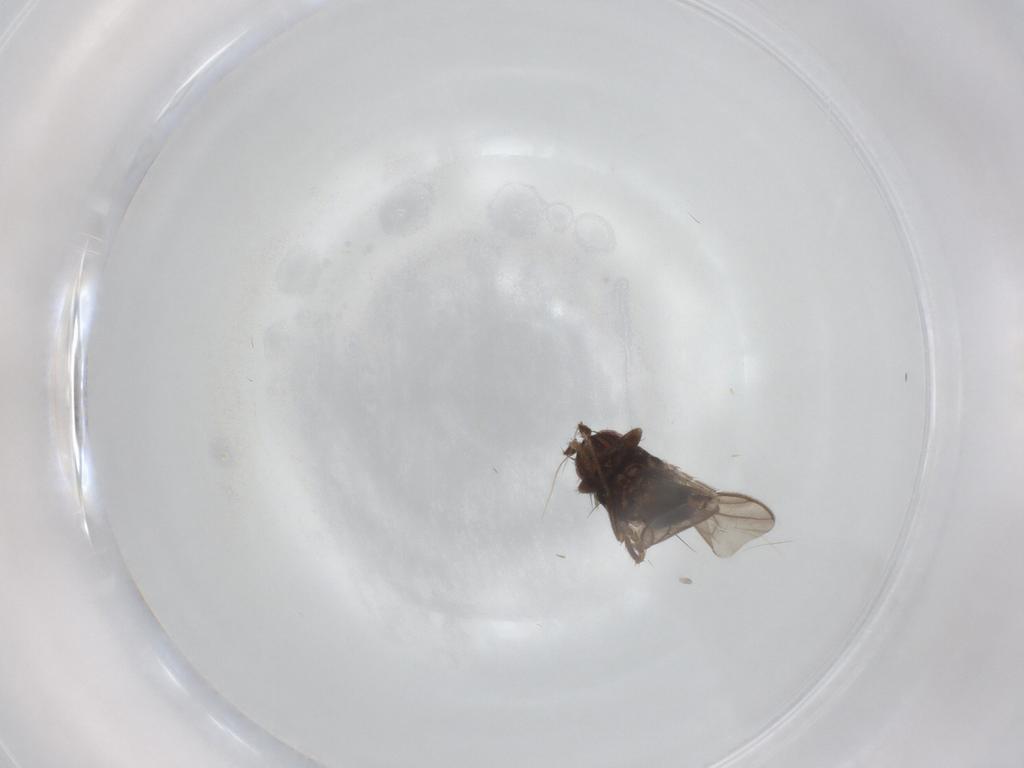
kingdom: Animalia
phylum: Arthropoda
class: Insecta
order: Diptera
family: Sphaeroceridae
